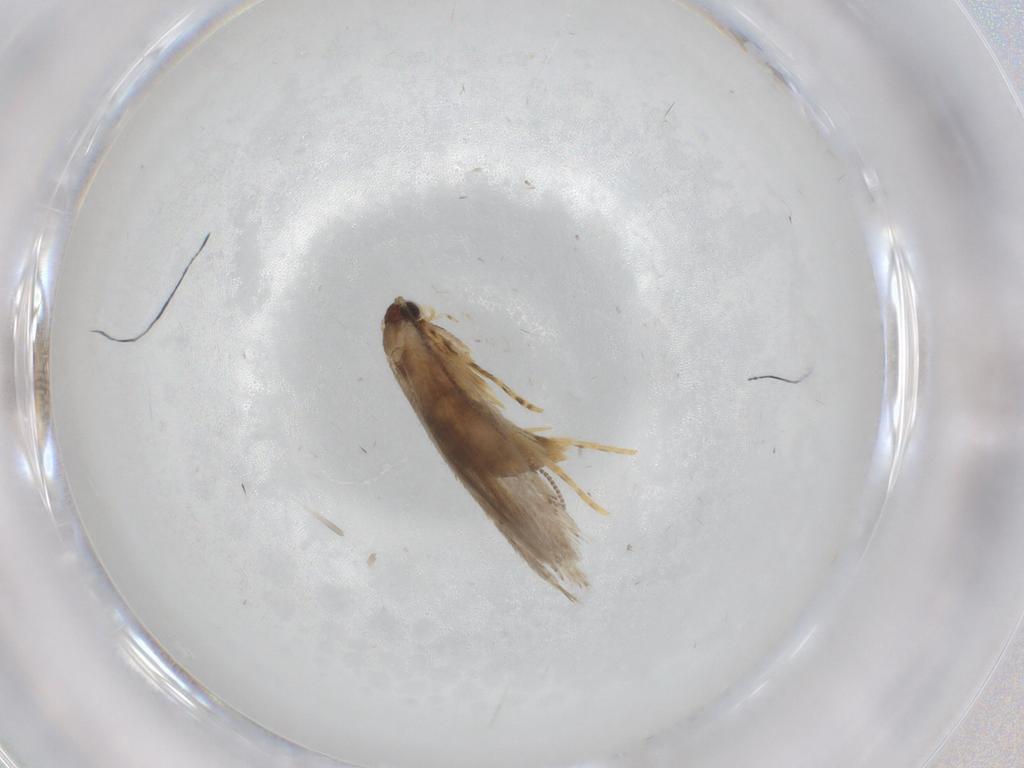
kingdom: Animalia
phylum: Arthropoda
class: Insecta
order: Lepidoptera
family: Tineidae
